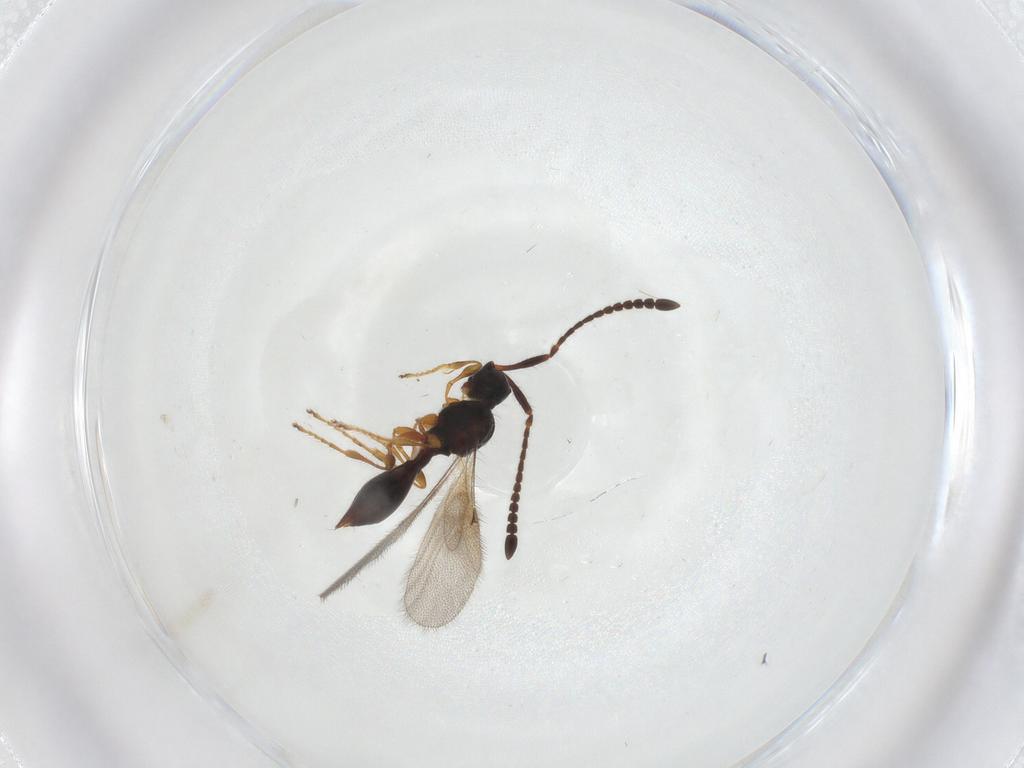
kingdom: Animalia
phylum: Arthropoda
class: Insecta
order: Hymenoptera
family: Diapriidae
